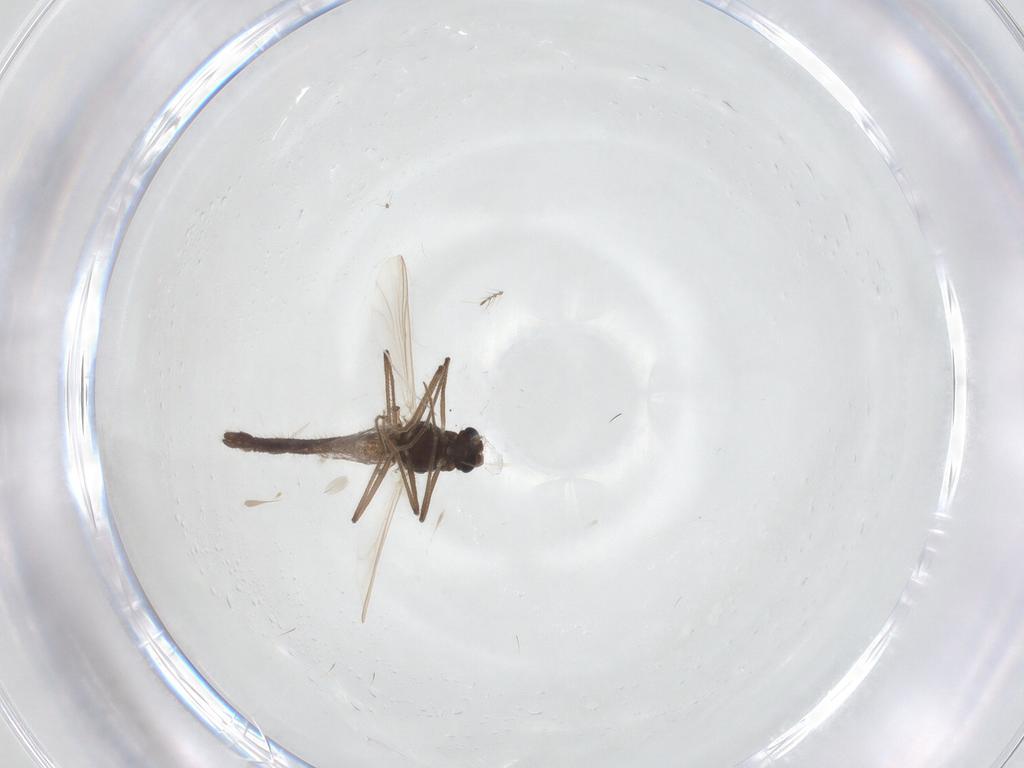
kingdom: Animalia
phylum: Arthropoda
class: Insecta
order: Diptera
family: Chironomidae
